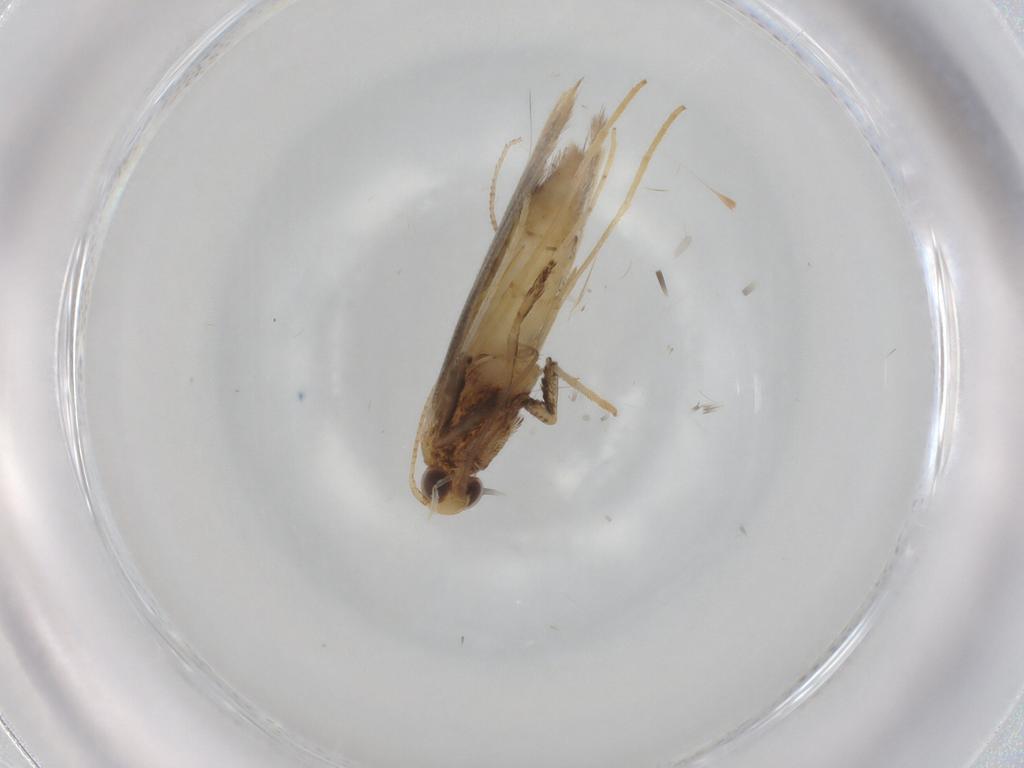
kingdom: Animalia
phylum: Arthropoda
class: Insecta
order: Lepidoptera
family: Gracillariidae
